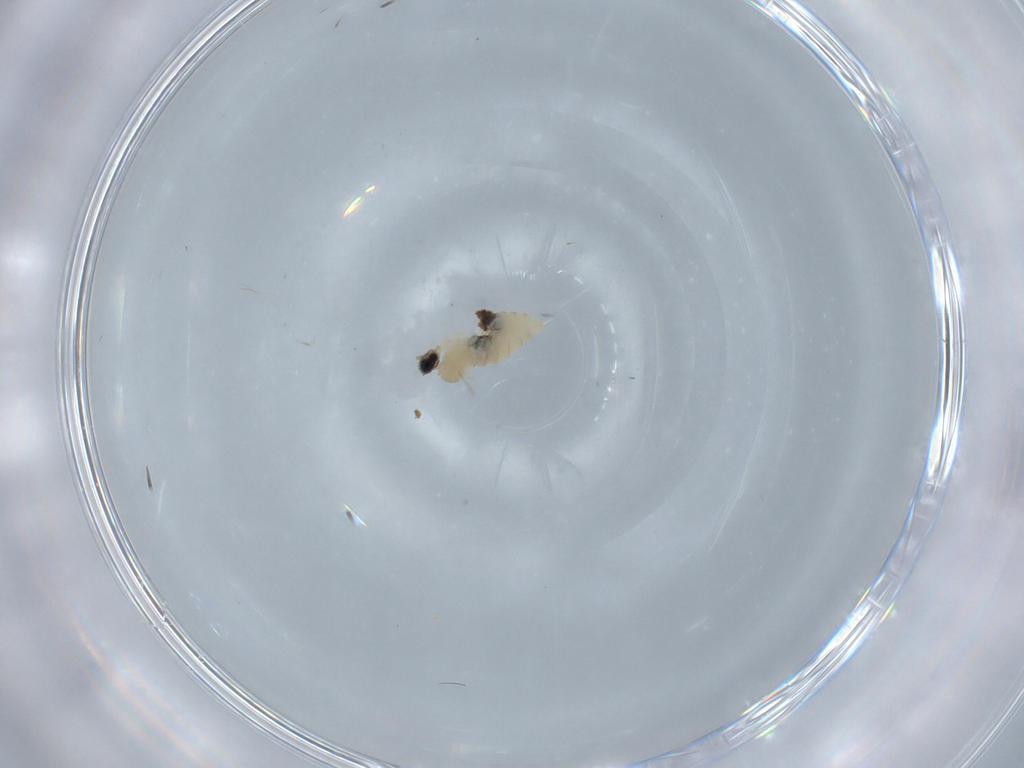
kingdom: Animalia
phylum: Arthropoda
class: Insecta
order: Diptera
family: Cecidomyiidae
